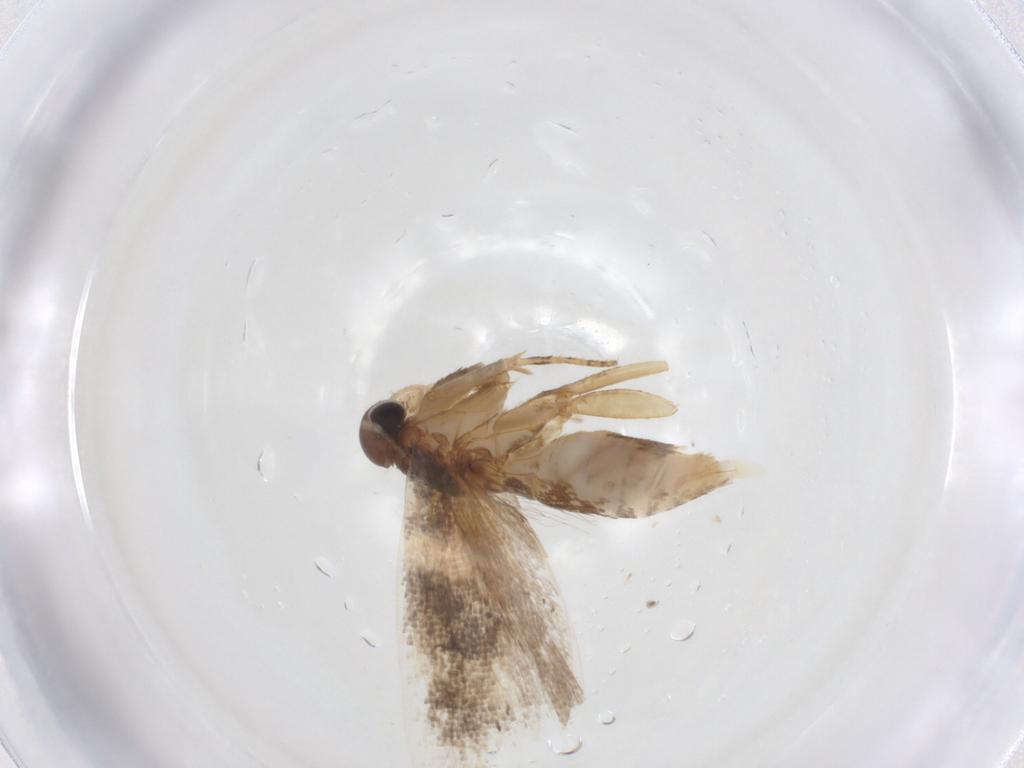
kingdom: Animalia
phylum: Arthropoda
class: Insecta
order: Lepidoptera
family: Gelechiidae
